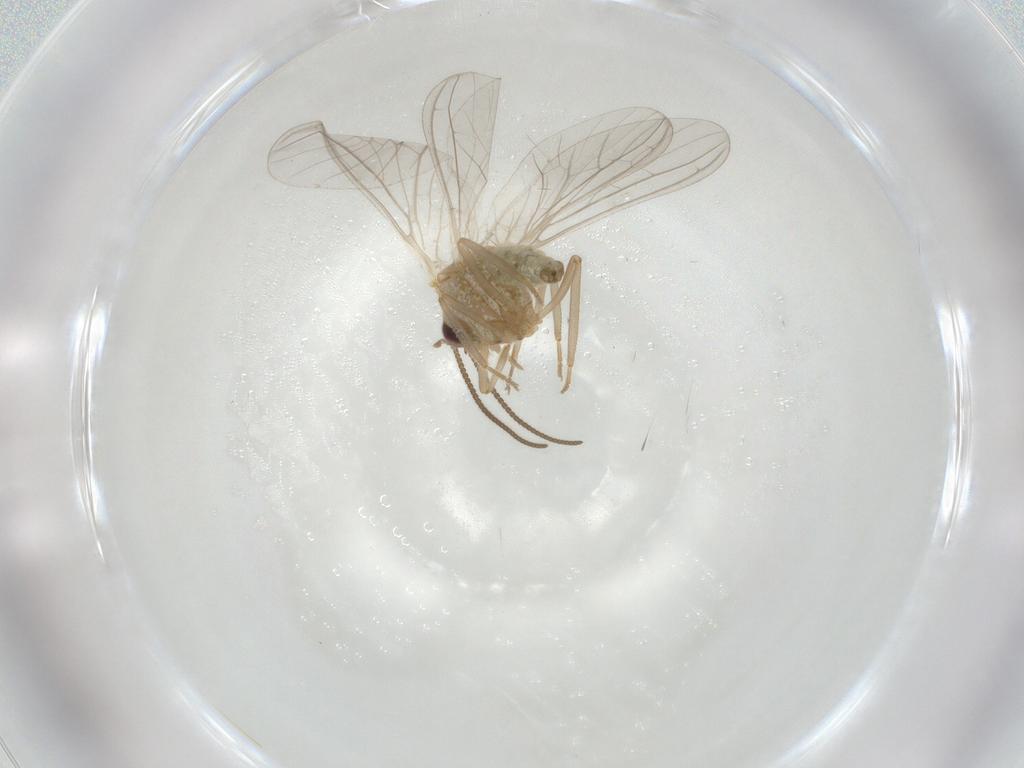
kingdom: Animalia
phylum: Arthropoda
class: Insecta
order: Neuroptera
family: Coniopterygidae
